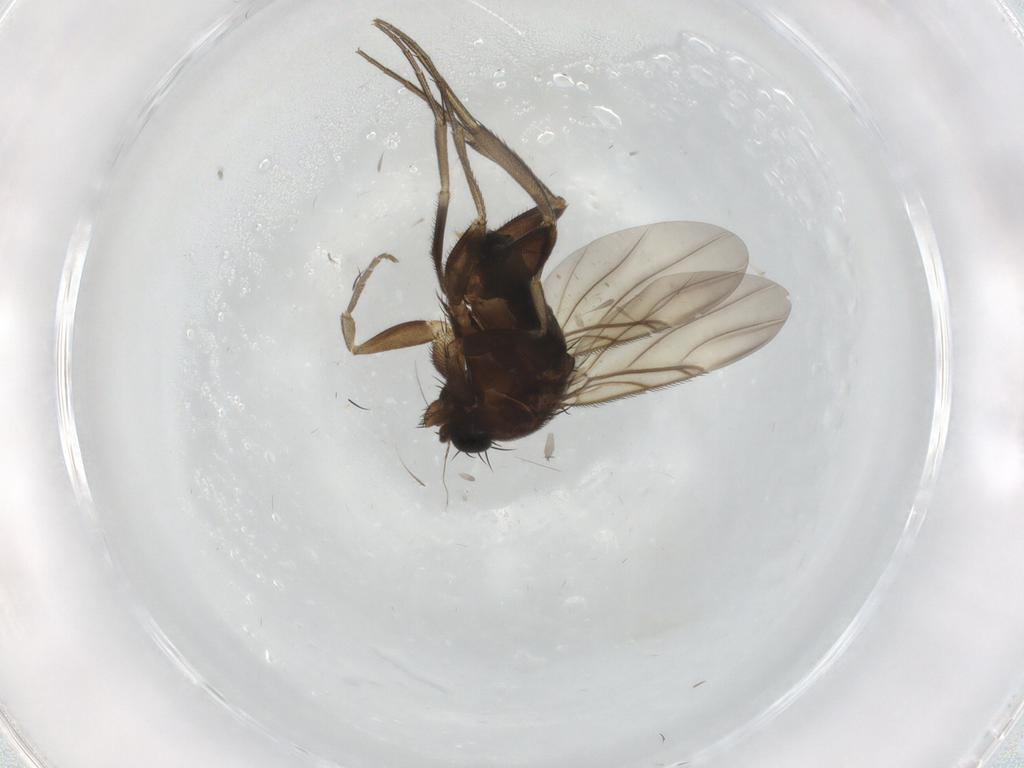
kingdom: Animalia
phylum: Arthropoda
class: Insecta
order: Diptera
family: Phoridae
